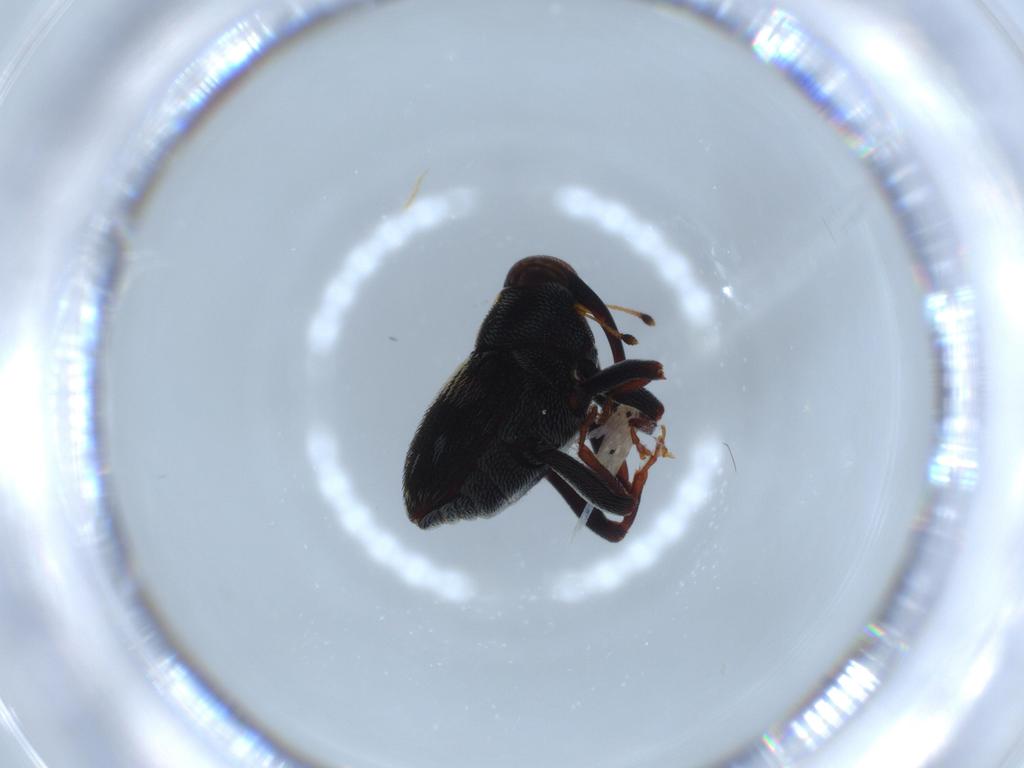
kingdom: Animalia
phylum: Arthropoda
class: Insecta
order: Coleoptera
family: Curculionidae
